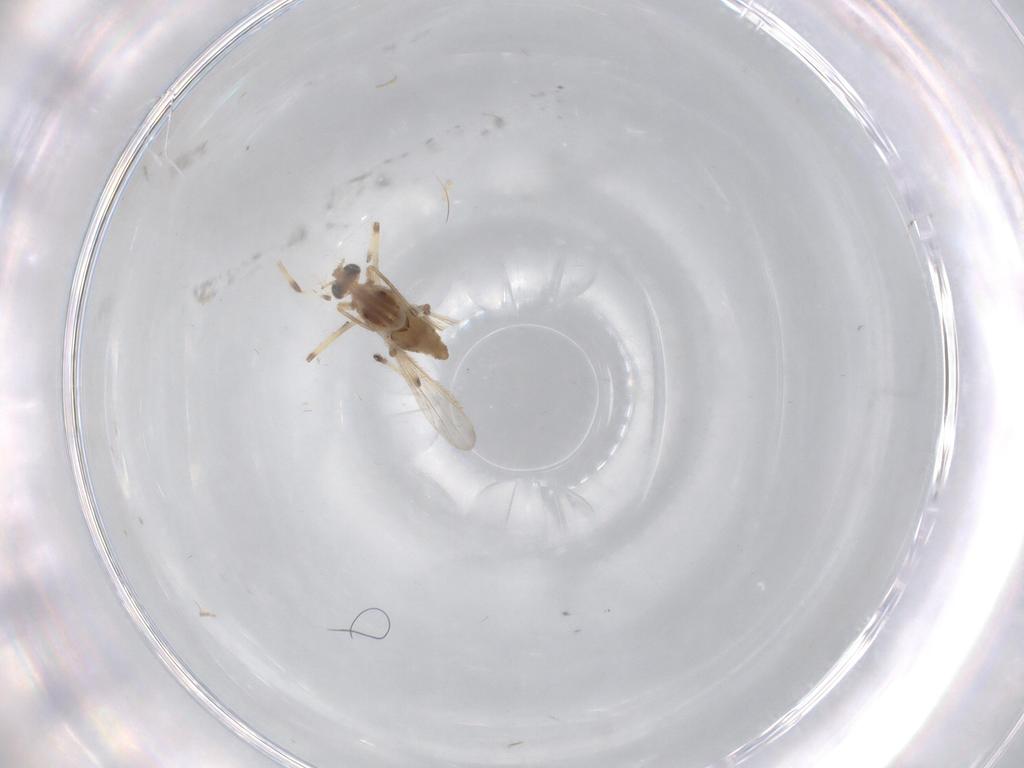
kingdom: Animalia
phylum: Arthropoda
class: Insecta
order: Diptera
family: Chironomidae
